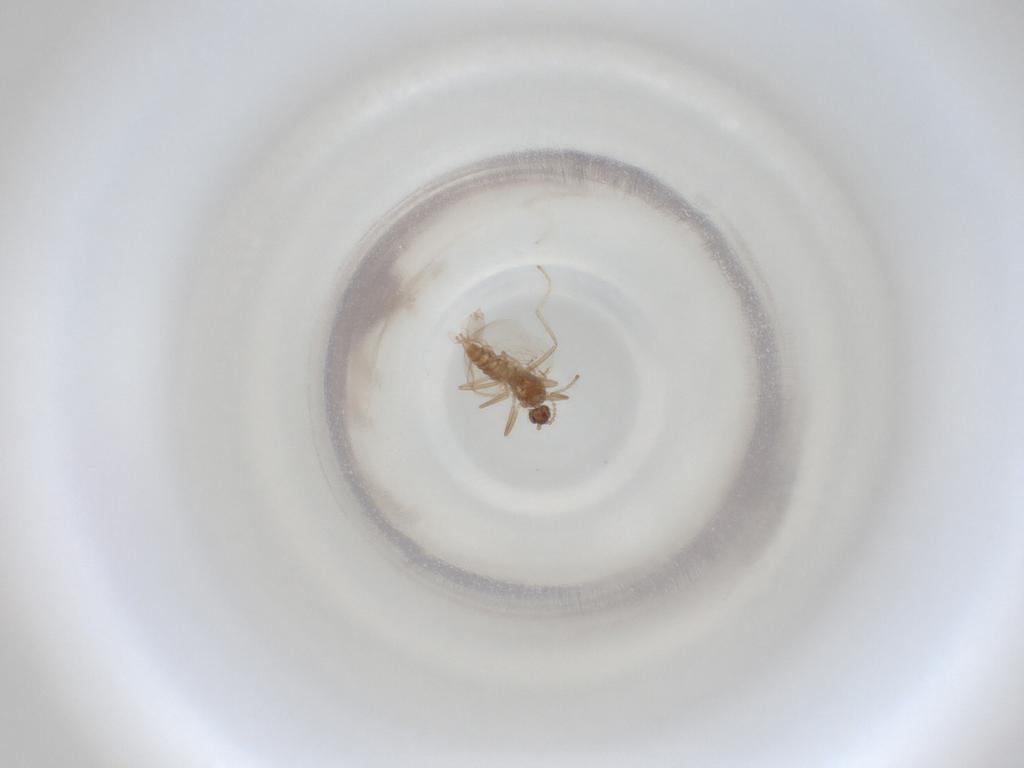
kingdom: Animalia
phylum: Arthropoda
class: Insecta
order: Diptera
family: Cecidomyiidae
